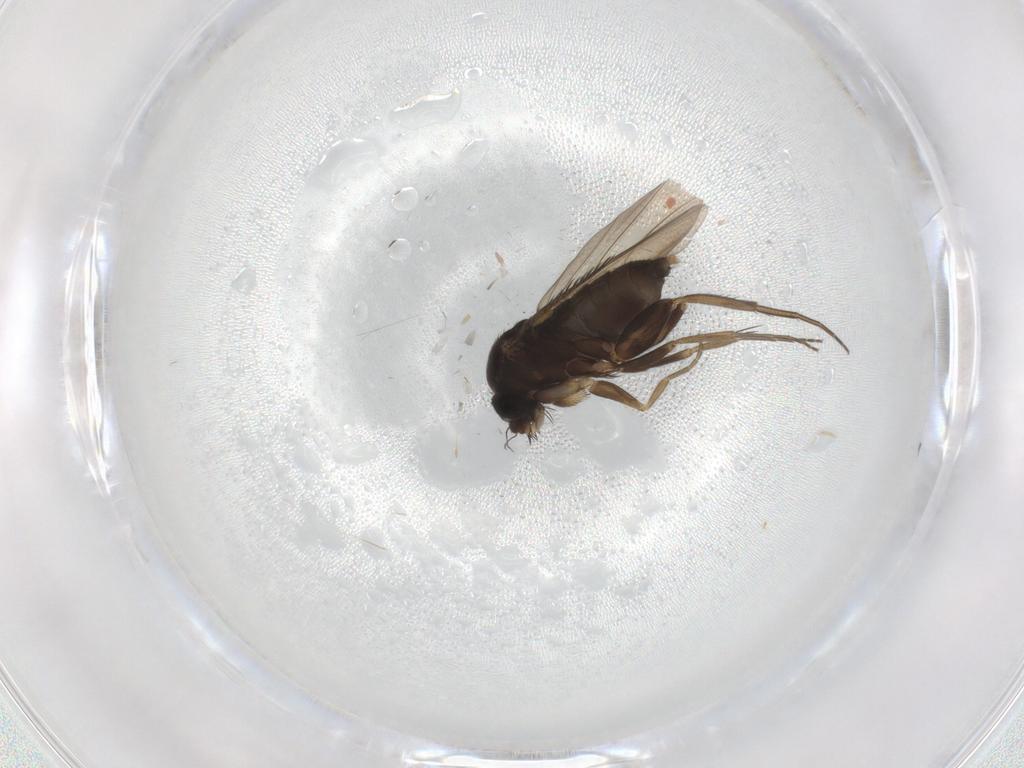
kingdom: Animalia
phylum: Arthropoda
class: Insecta
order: Diptera
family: Phoridae
